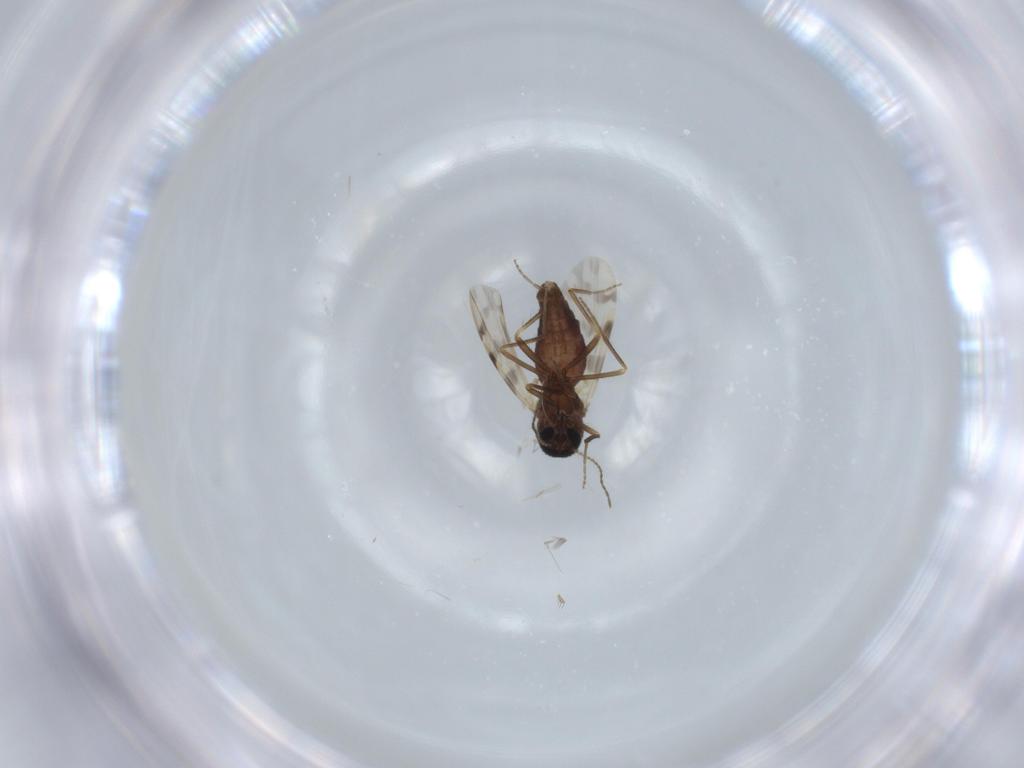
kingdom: Animalia
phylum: Arthropoda
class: Insecta
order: Diptera
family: Ceratopogonidae
